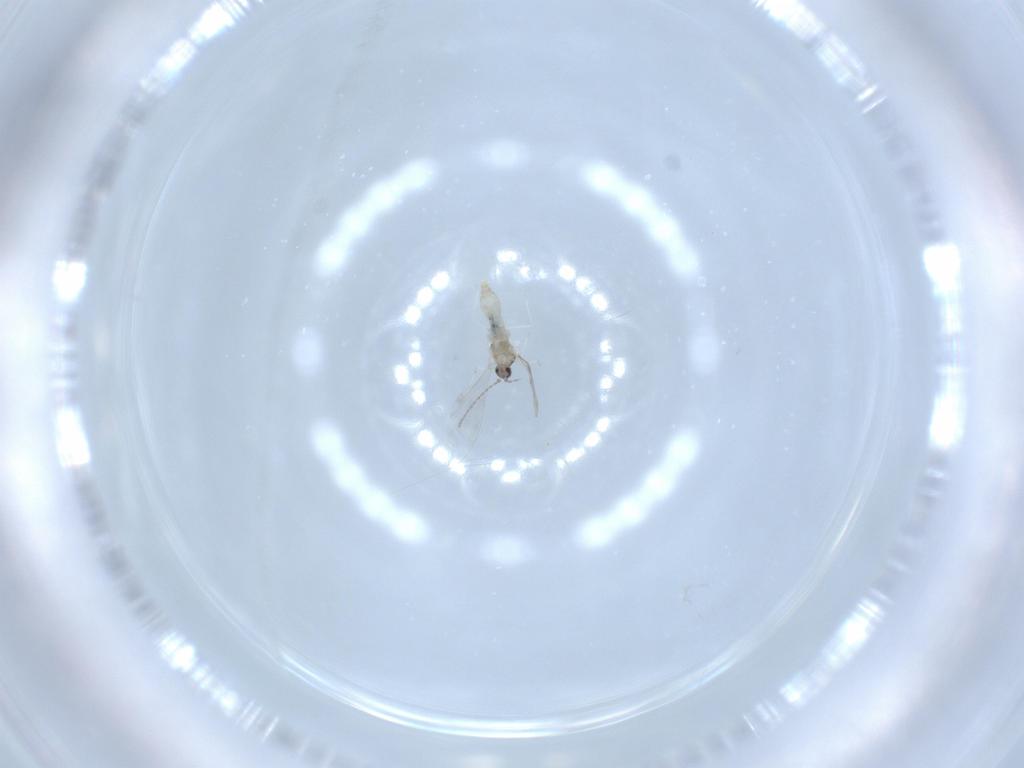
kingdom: Animalia
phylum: Arthropoda
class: Insecta
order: Diptera
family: Cecidomyiidae
